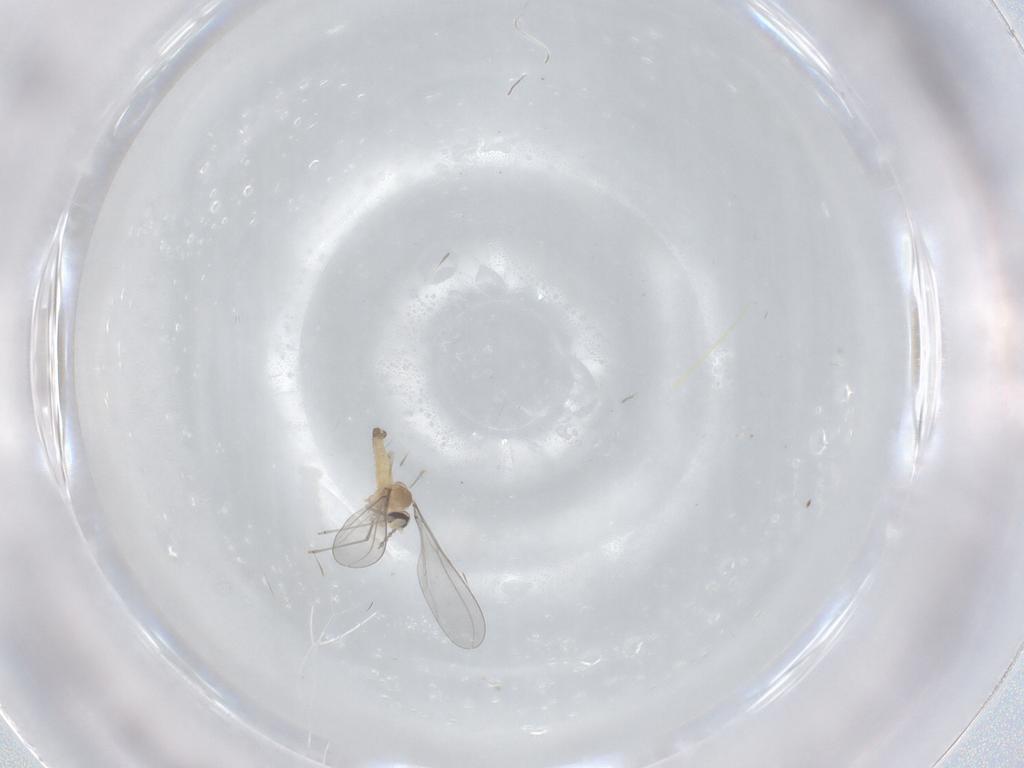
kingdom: Animalia
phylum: Arthropoda
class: Insecta
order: Diptera
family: Cecidomyiidae
